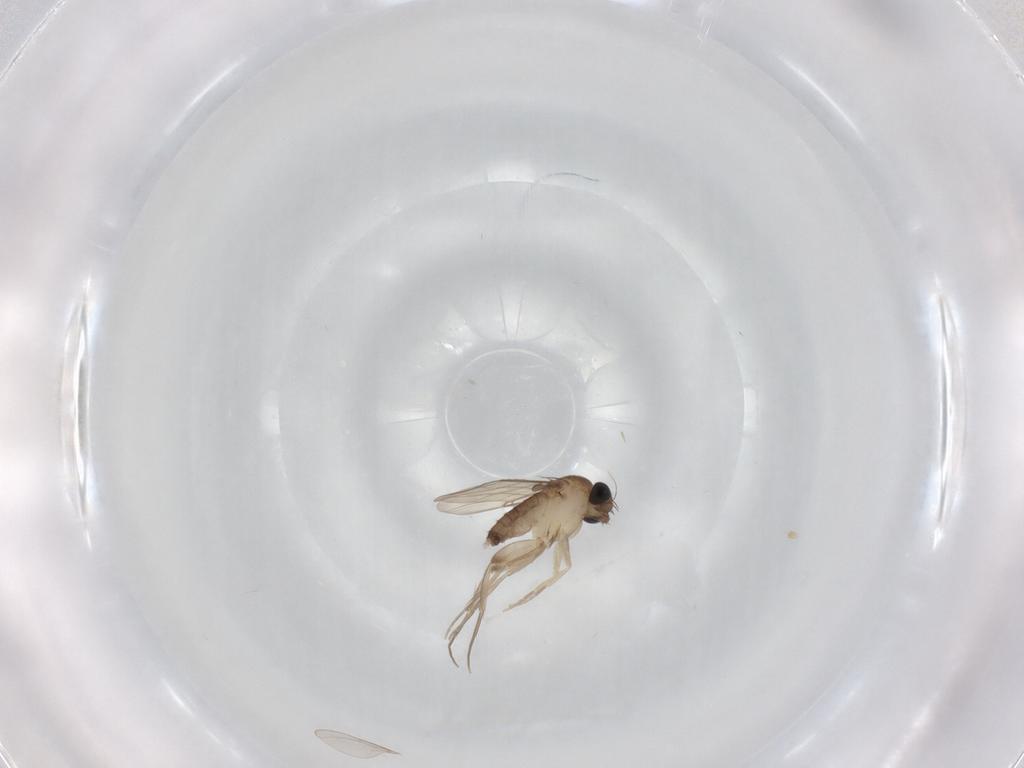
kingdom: Animalia
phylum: Arthropoda
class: Insecta
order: Diptera
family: Phoridae
